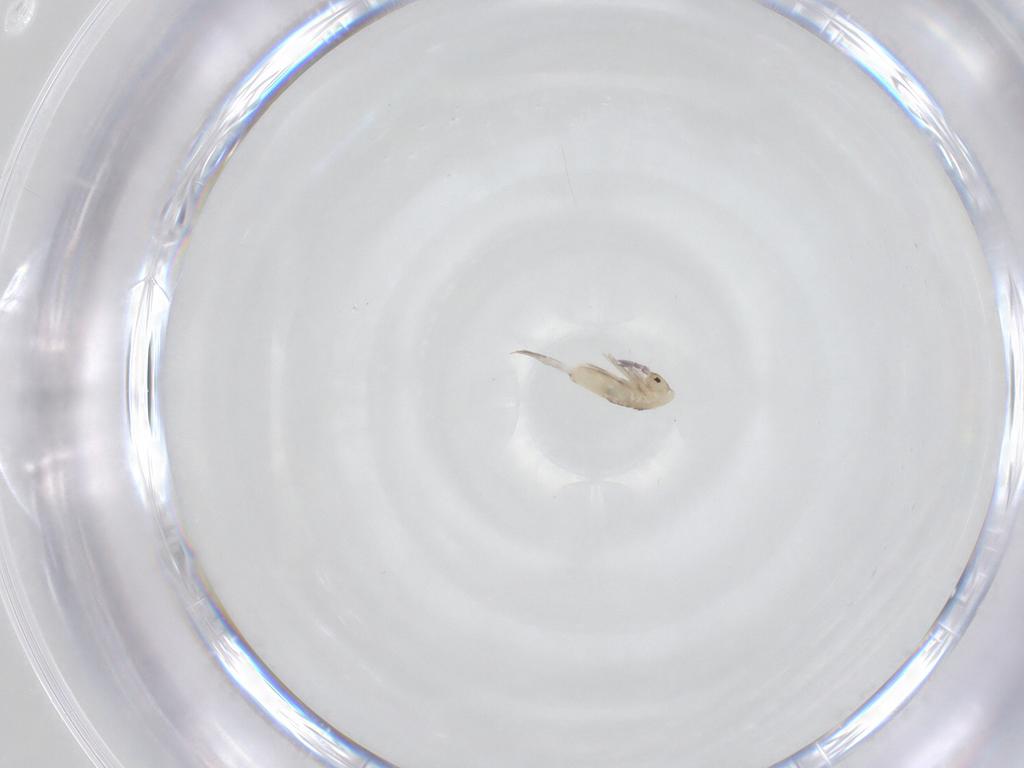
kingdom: Animalia
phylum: Arthropoda
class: Collembola
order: Entomobryomorpha
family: Entomobryidae
